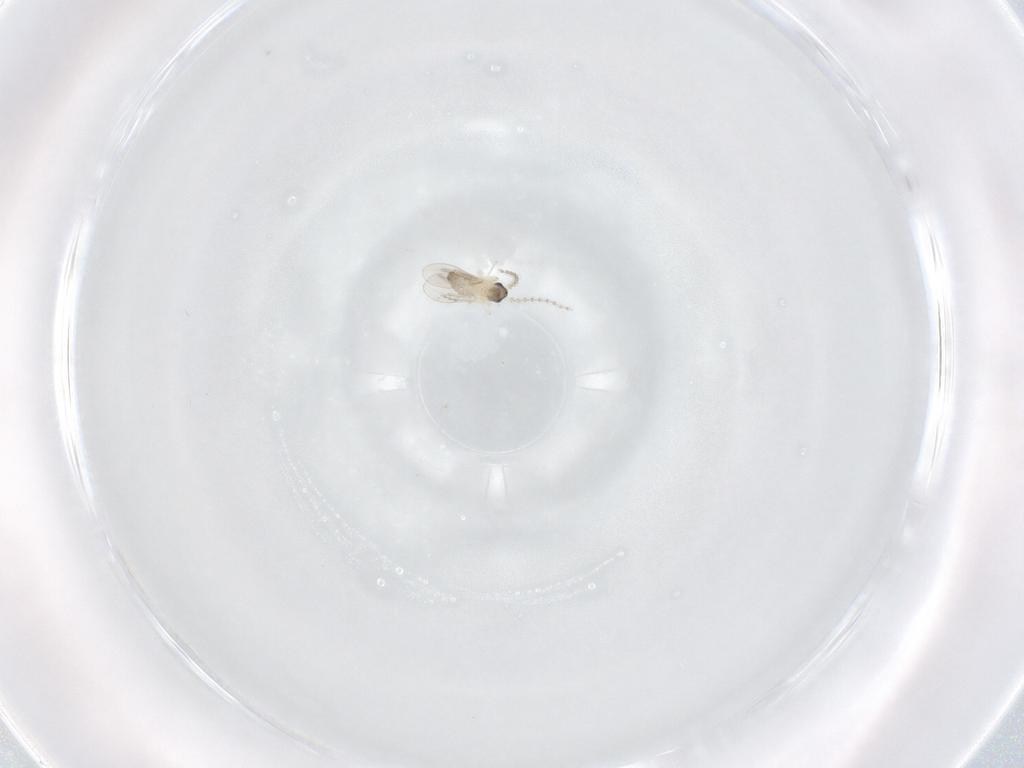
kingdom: Animalia
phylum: Arthropoda
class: Insecta
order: Diptera
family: Cecidomyiidae
